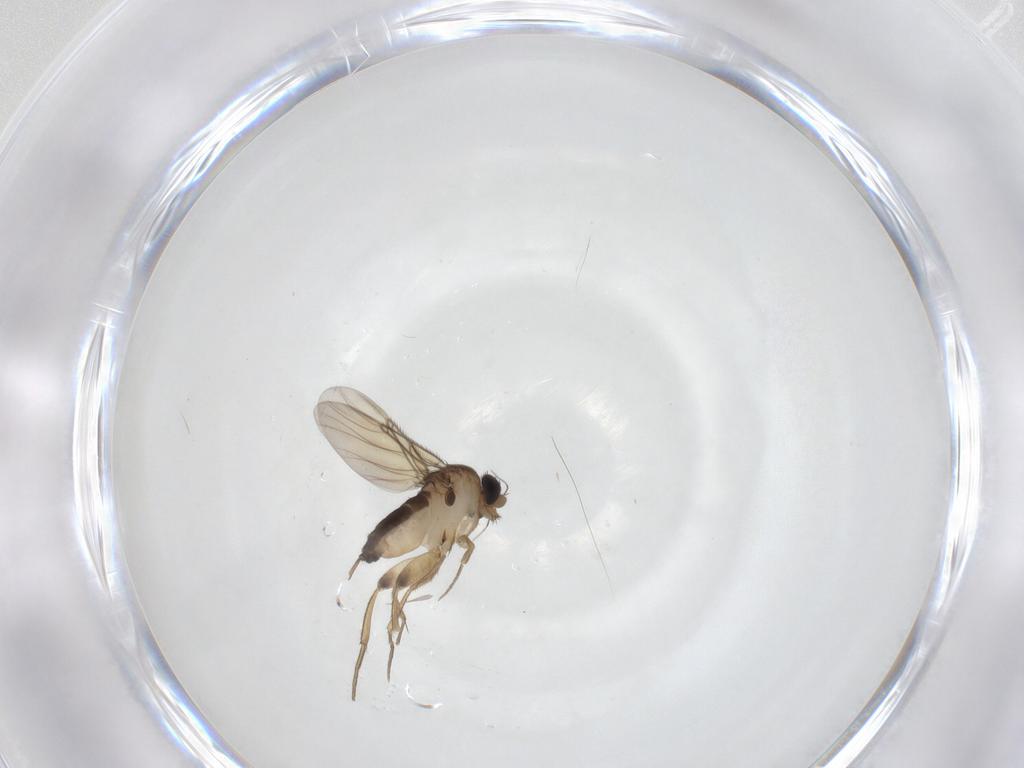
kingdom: Animalia
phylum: Arthropoda
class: Insecta
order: Diptera
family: Phoridae
